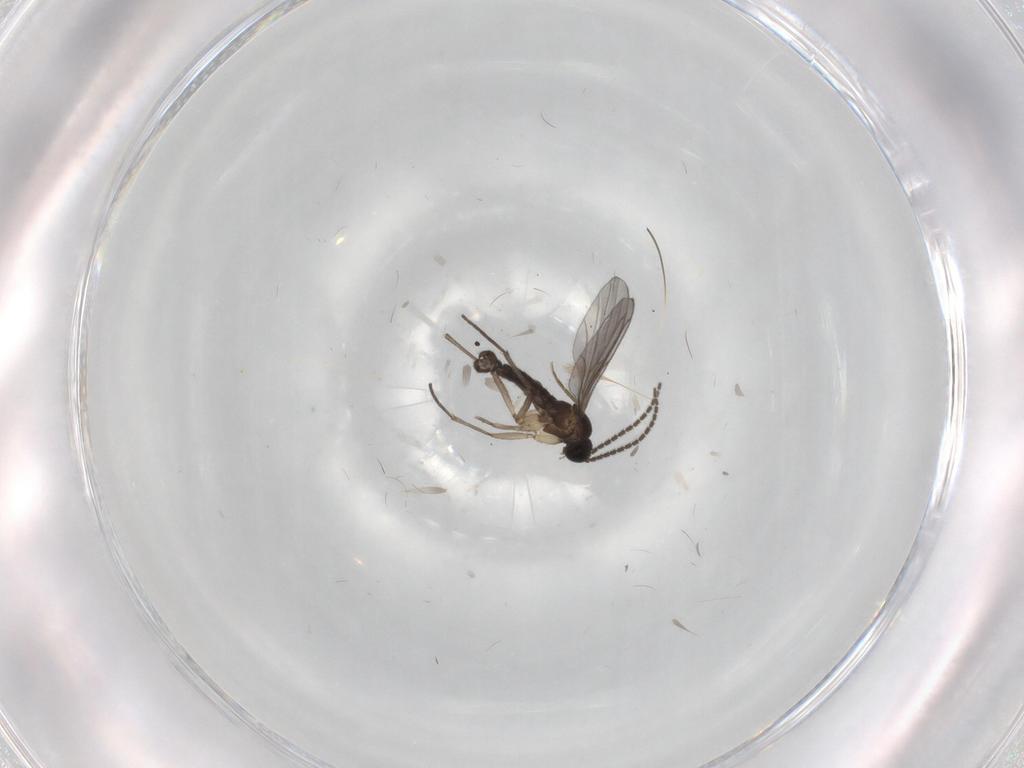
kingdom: Animalia
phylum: Arthropoda
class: Insecta
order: Diptera
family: Sciaridae
